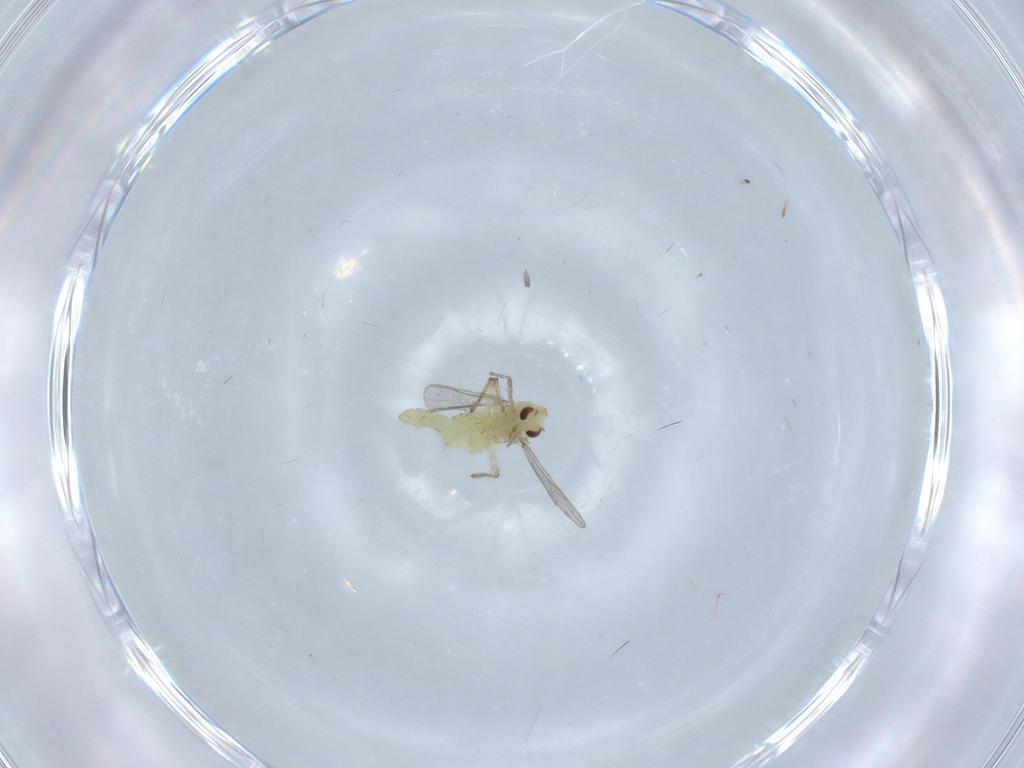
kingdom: Animalia
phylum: Arthropoda
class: Insecta
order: Diptera
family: Chironomidae
